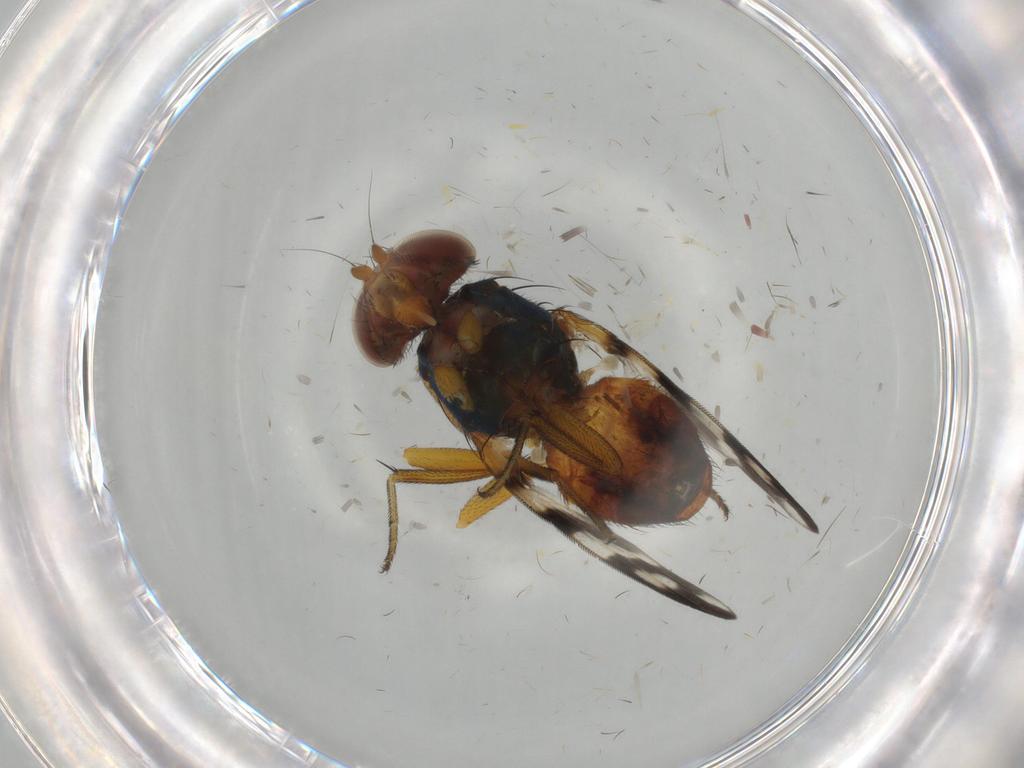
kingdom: Animalia
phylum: Arthropoda
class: Insecta
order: Diptera
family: Ulidiidae
